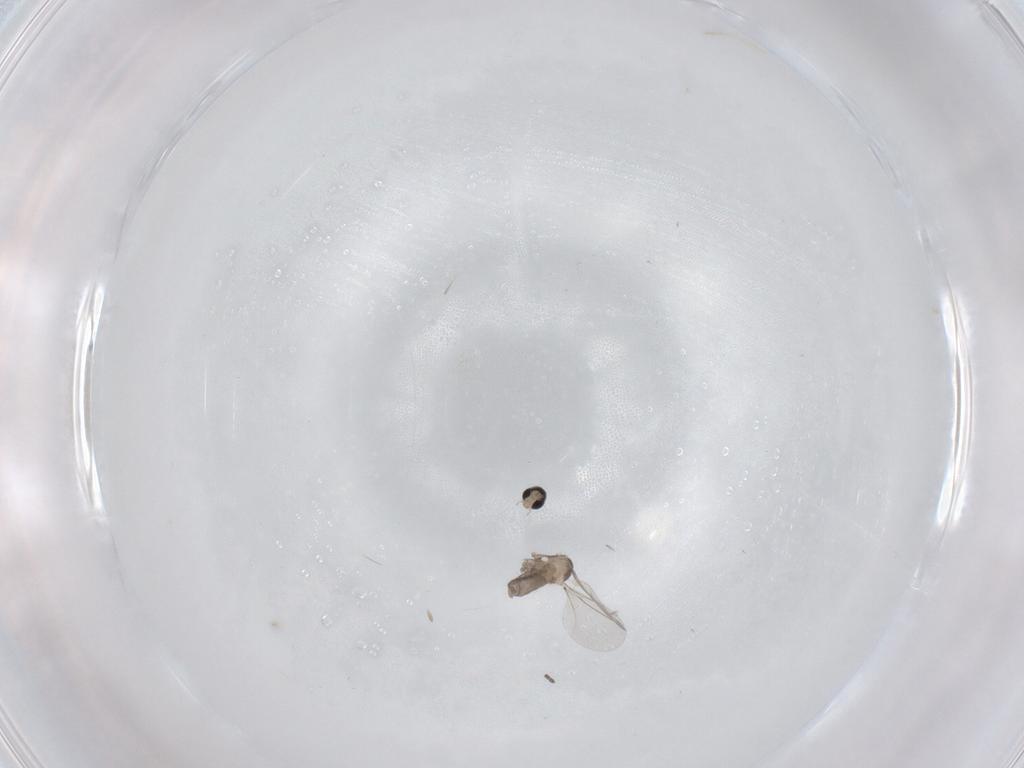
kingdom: Animalia
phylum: Arthropoda
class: Insecta
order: Diptera
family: Cecidomyiidae
